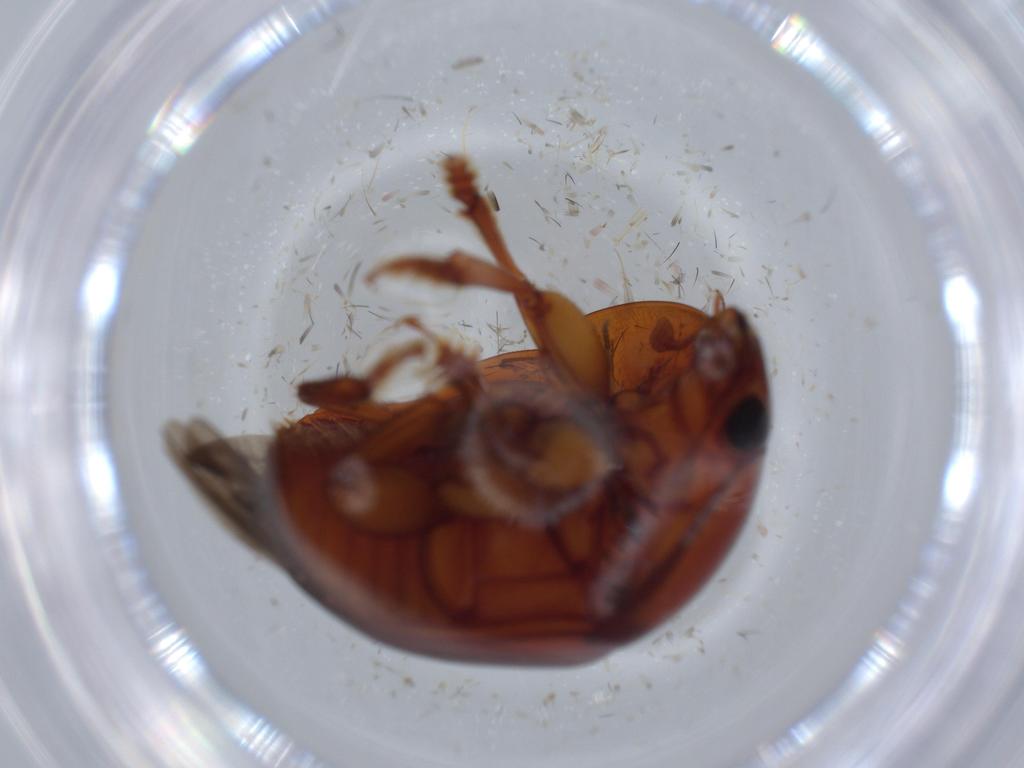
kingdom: Animalia
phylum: Arthropoda
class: Insecta
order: Coleoptera
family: Nitidulidae
